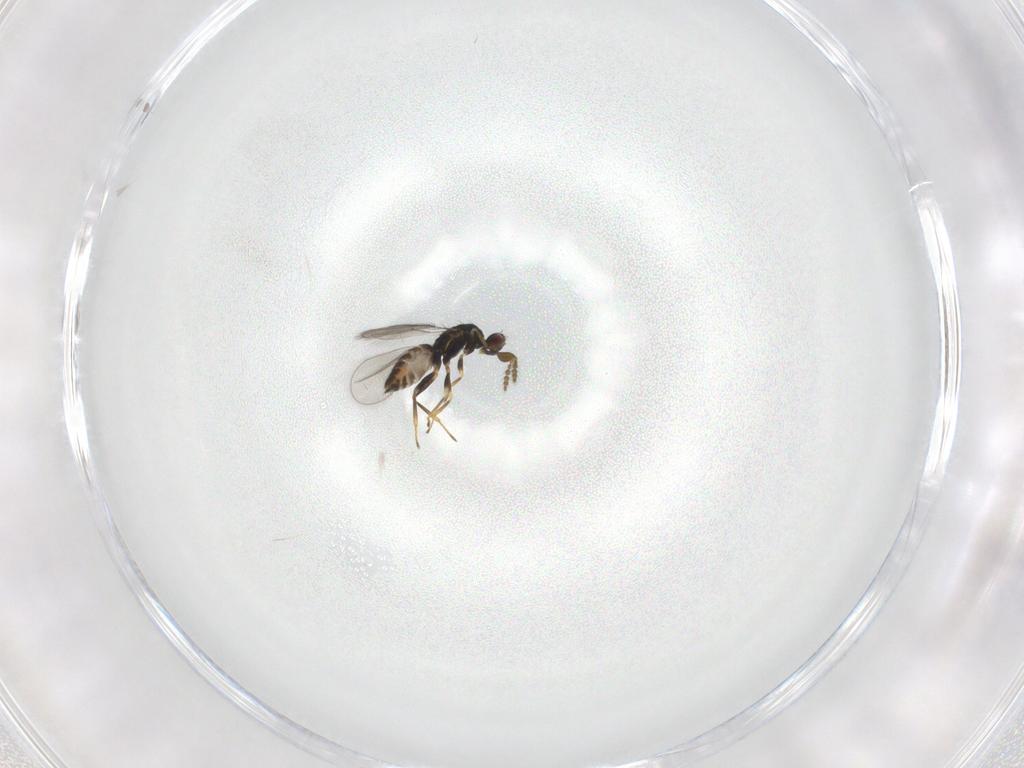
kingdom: Animalia
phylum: Arthropoda
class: Insecta
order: Hymenoptera
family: Eulophidae
